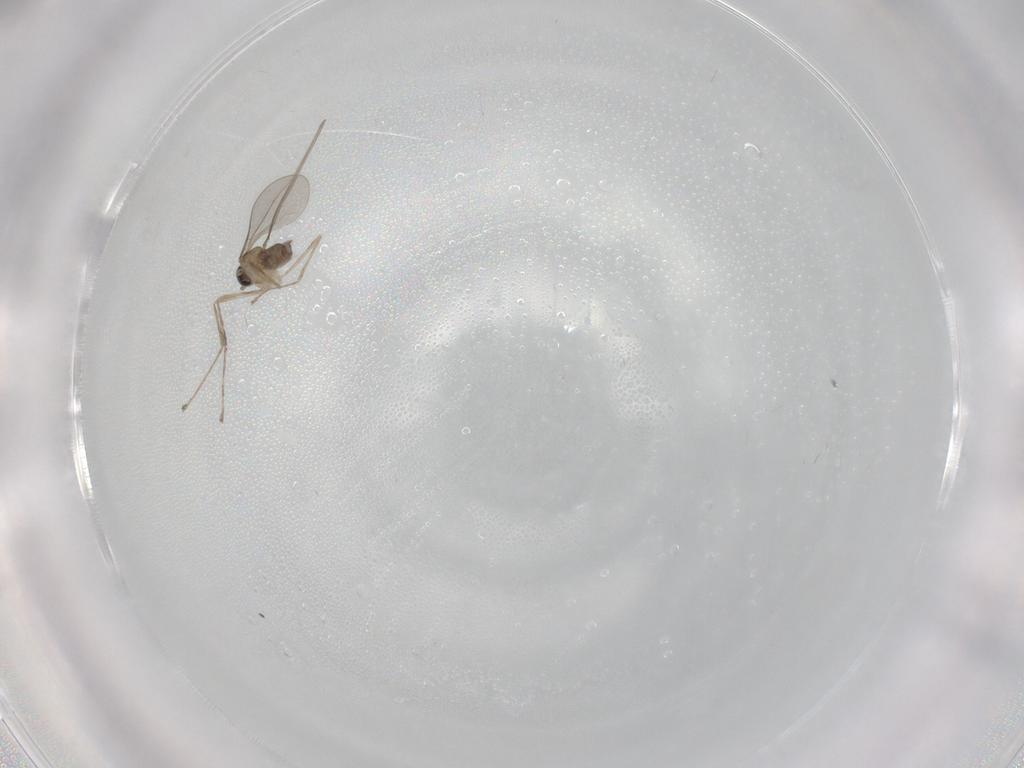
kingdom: Animalia
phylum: Arthropoda
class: Insecta
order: Diptera
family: Cecidomyiidae
